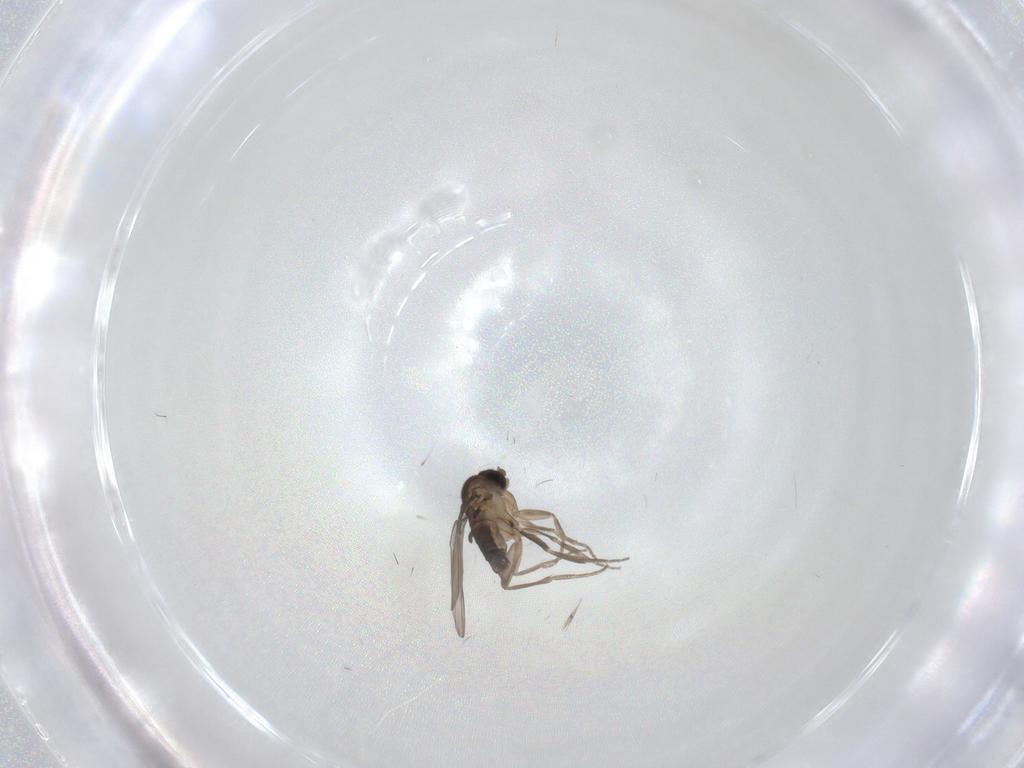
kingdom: Animalia
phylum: Arthropoda
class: Insecta
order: Diptera
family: Phoridae
